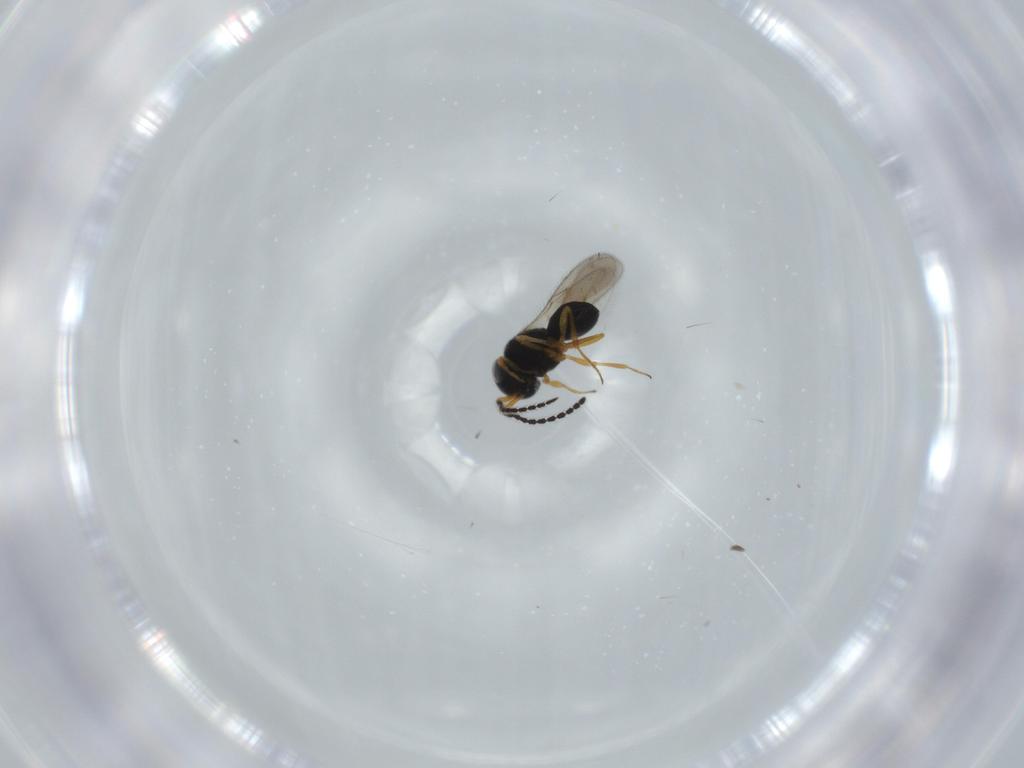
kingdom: Animalia
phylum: Arthropoda
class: Insecta
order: Hymenoptera
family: Scelionidae
